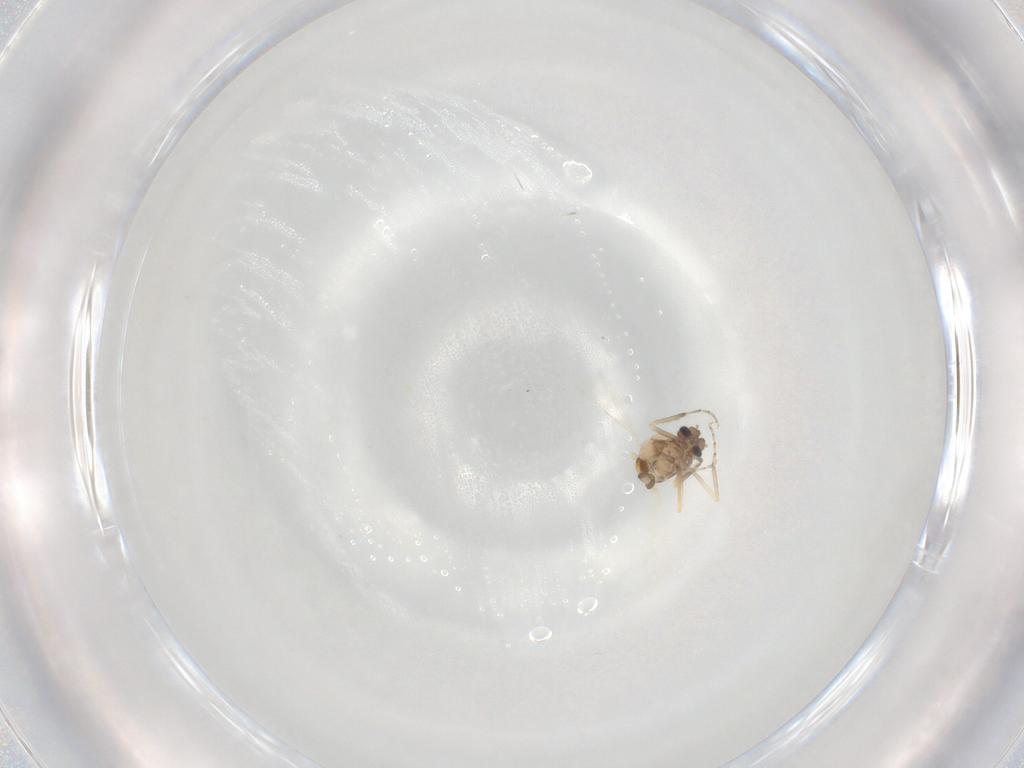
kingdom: Animalia
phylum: Arthropoda
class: Insecta
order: Diptera
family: Ceratopogonidae
